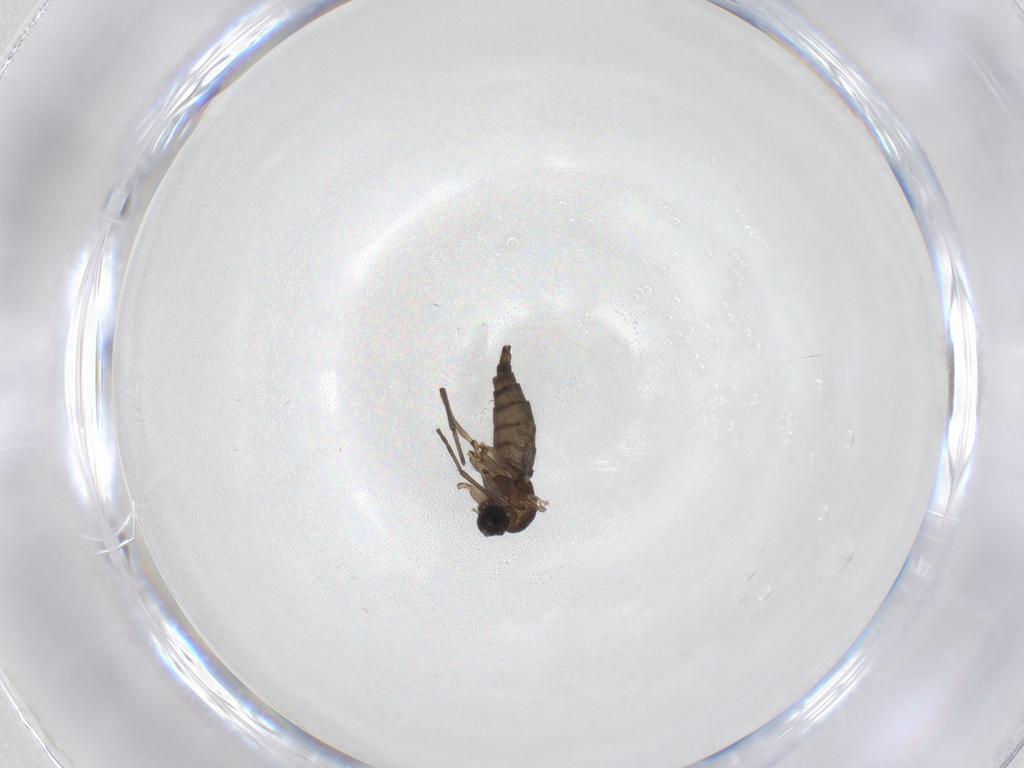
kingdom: Animalia
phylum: Arthropoda
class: Insecta
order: Diptera
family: Sciaridae
